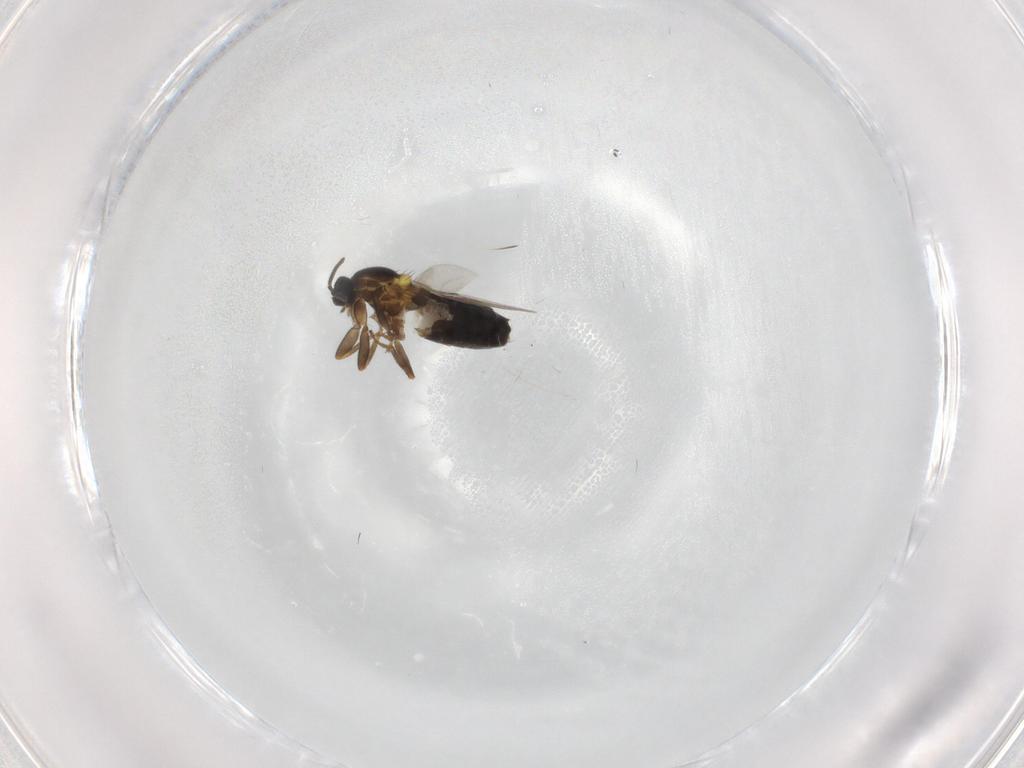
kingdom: Animalia
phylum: Arthropoda
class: Insecta
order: Diptera
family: Scatopsidae
